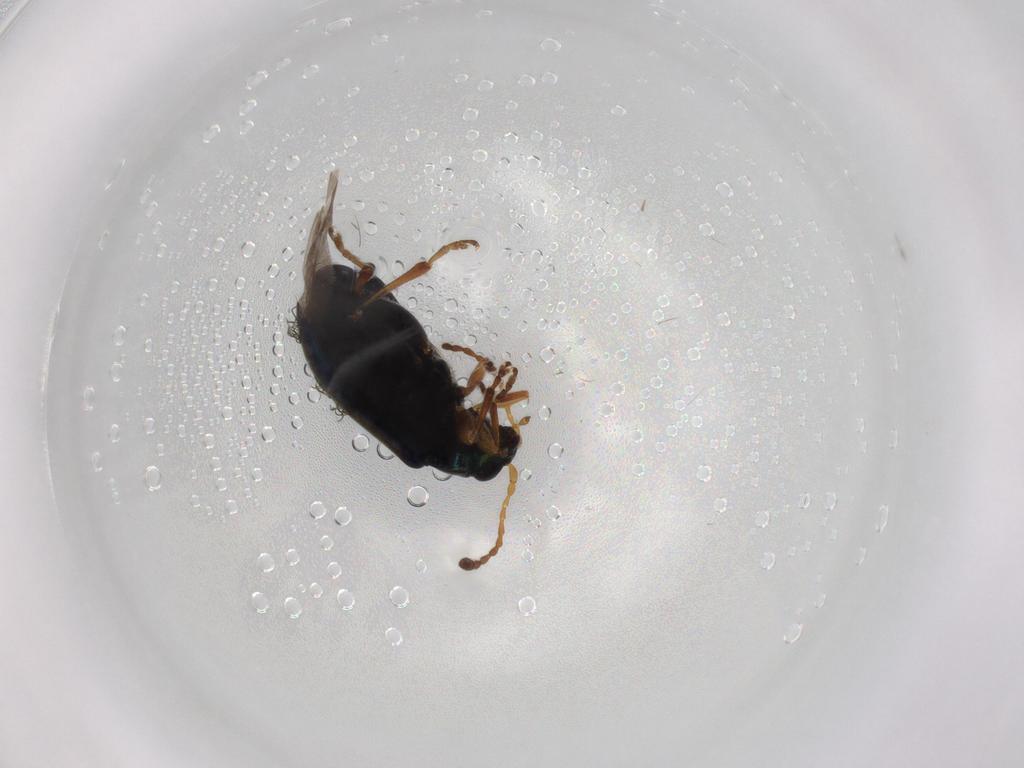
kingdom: Animalia
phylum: Arthropoda
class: Insecta
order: Coleoptera
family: Chrysomelidae
